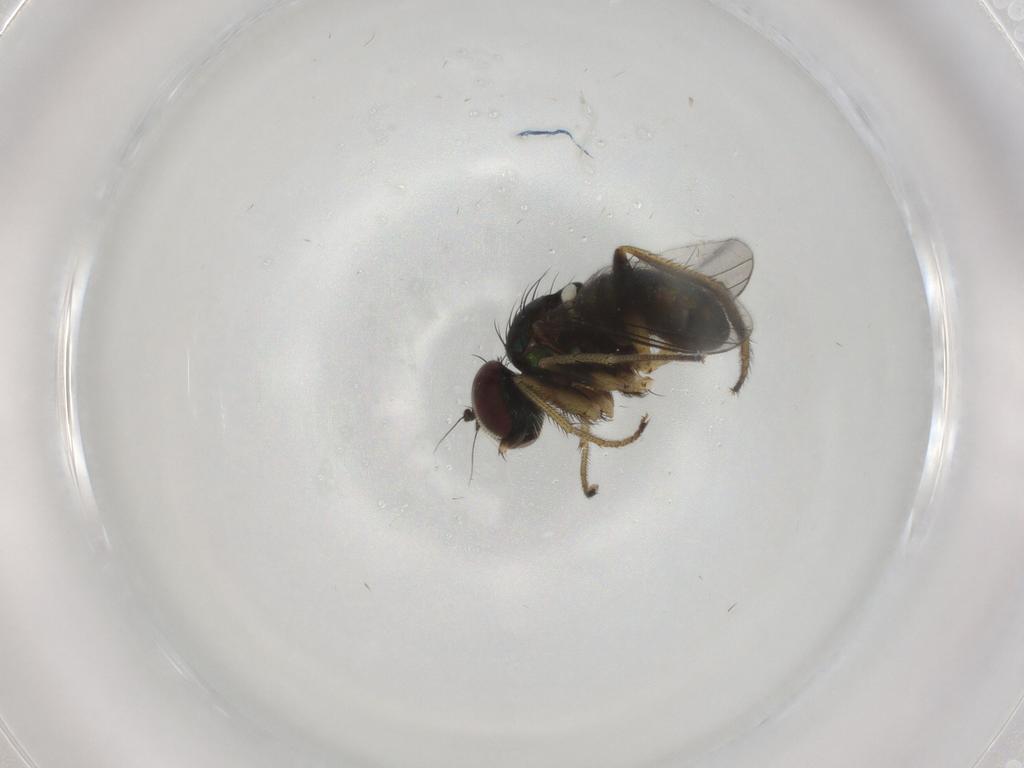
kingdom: Animalia
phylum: Arthropoda
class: Insecta
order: Diptera
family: Dolichopodidae
